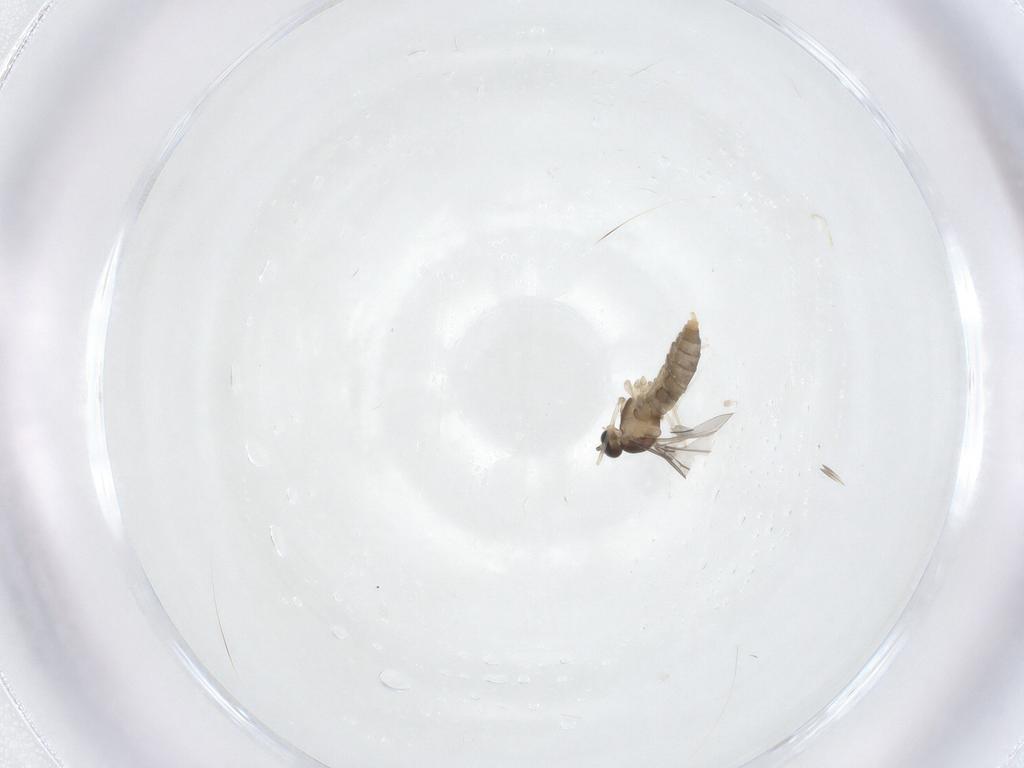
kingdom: Animalia
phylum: Arthropoda
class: Insecta
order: Diptera
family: Cecidomyiidae
